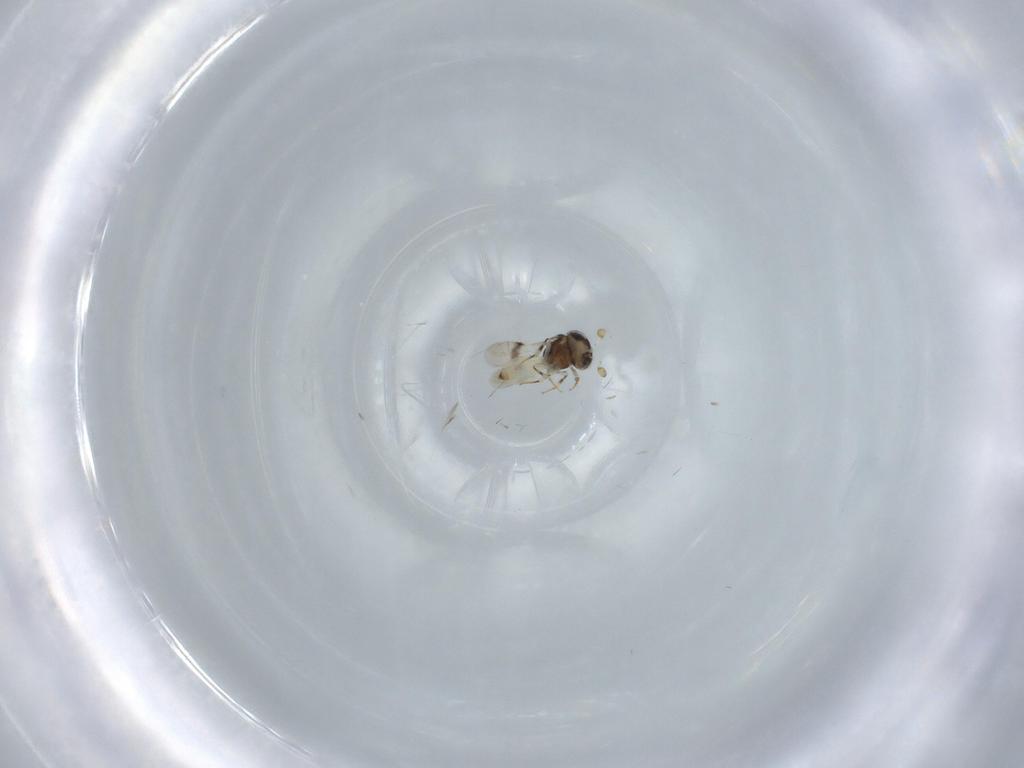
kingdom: Animalia
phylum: Arthropoda
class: Insecta
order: Hymenoptera
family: Scelionidae
